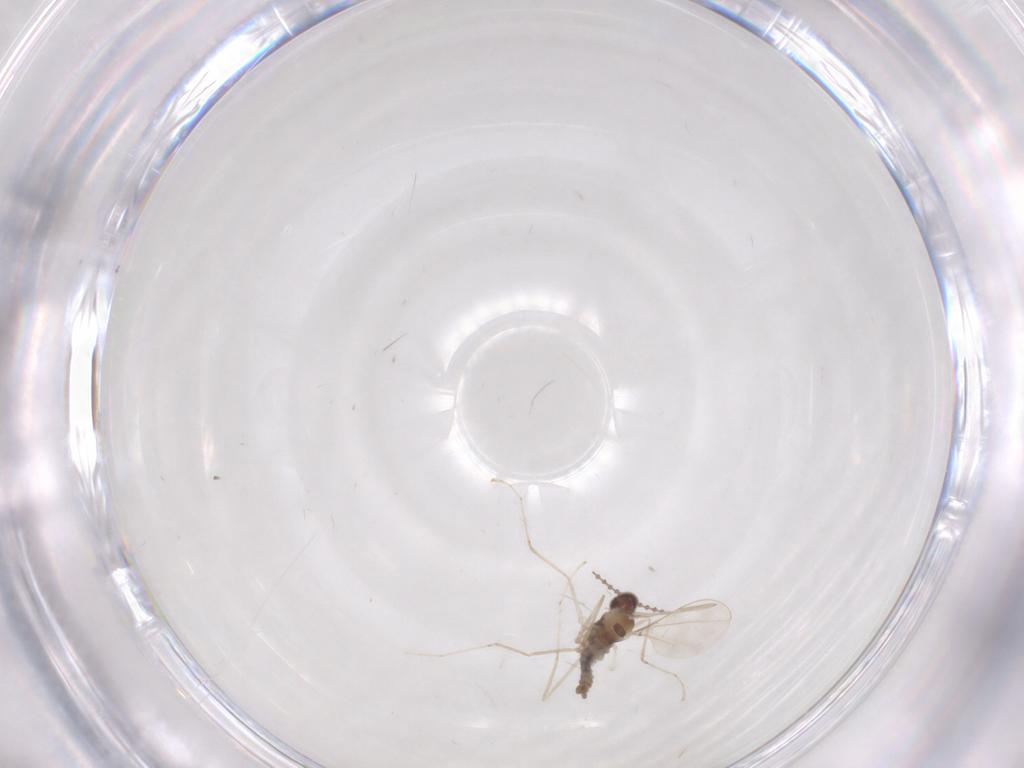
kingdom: Animalia
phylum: Arthropoda
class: Insecta
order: Diptera
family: Cecidomyiidae
